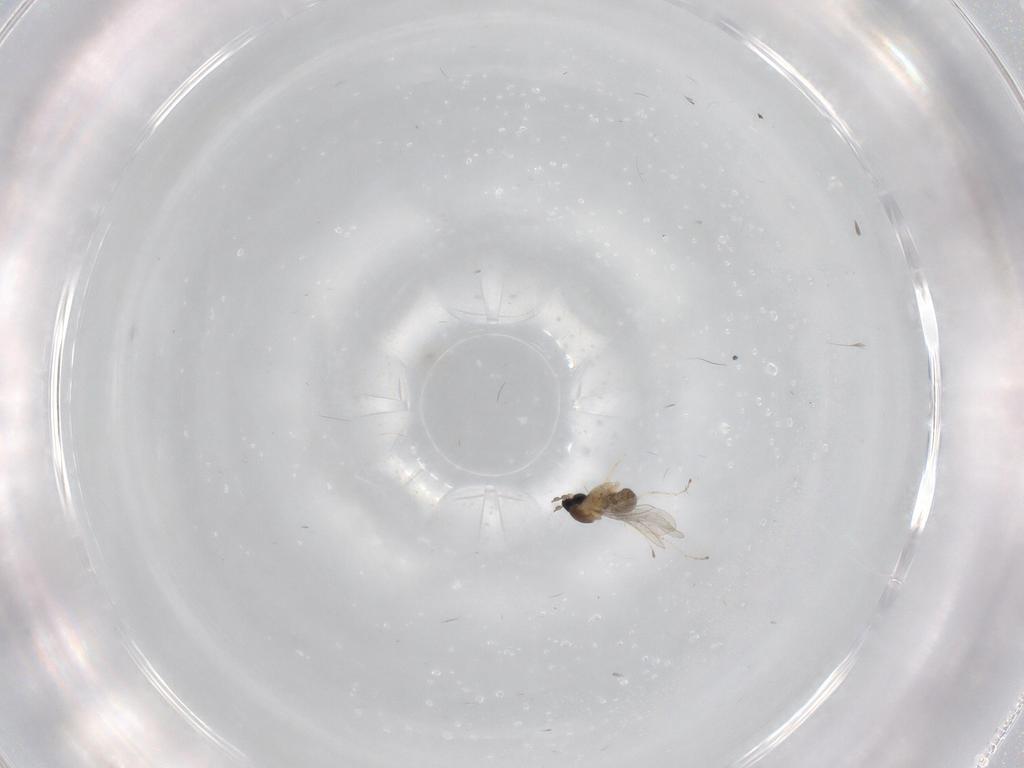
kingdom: Animalia
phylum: Arthropoda
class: Insecta
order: Diptera
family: Cecidomyiidae
